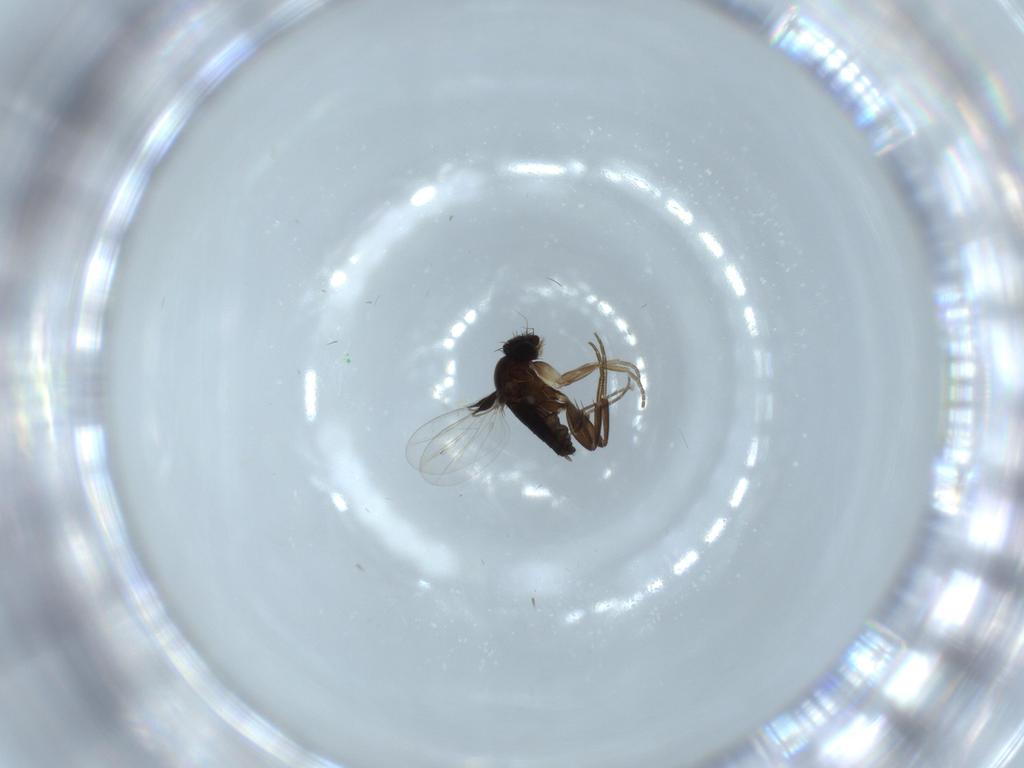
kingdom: Animalia
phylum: Arthropoda
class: Insecta
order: Diptera
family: Phoridae
